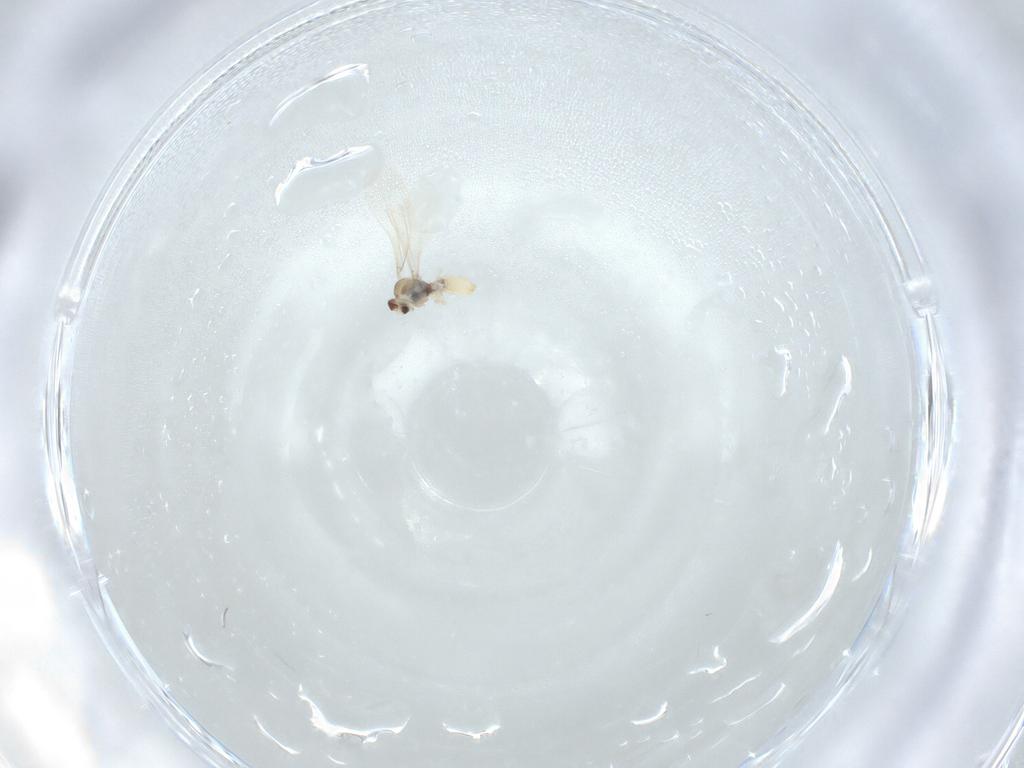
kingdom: Animalia
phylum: Arthropoda
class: Insecta
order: Diptera
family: Cecidomyiidae
